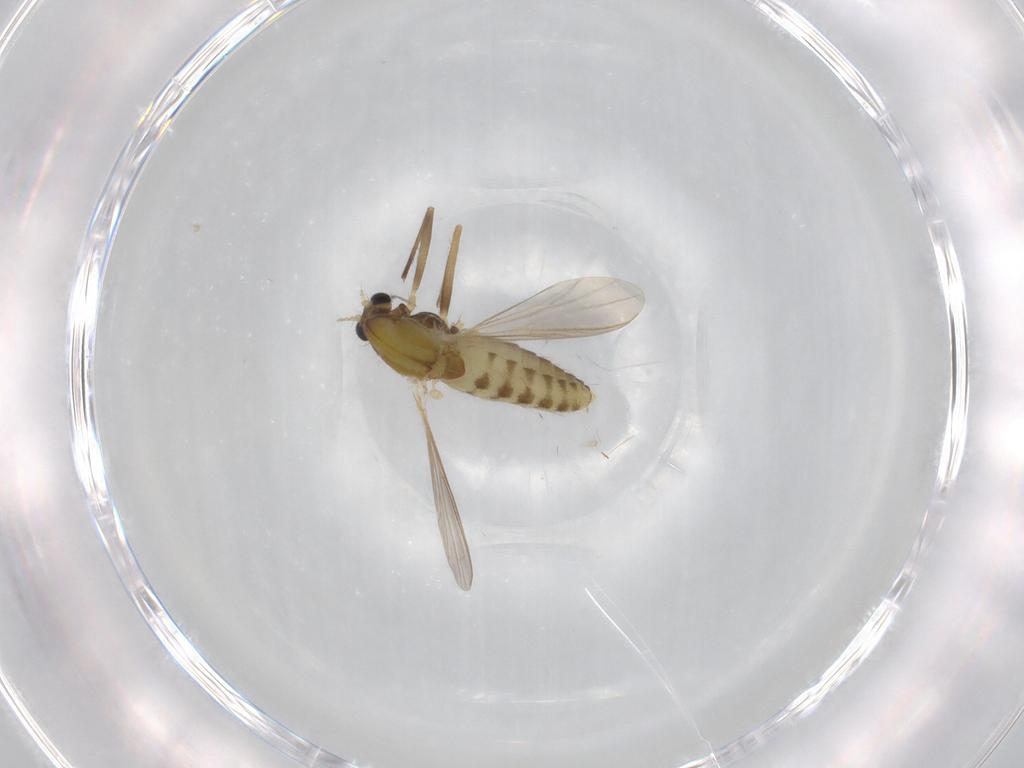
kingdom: Animalia
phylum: Arthropoda
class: Insecta
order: Diptera
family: Chironomidae
